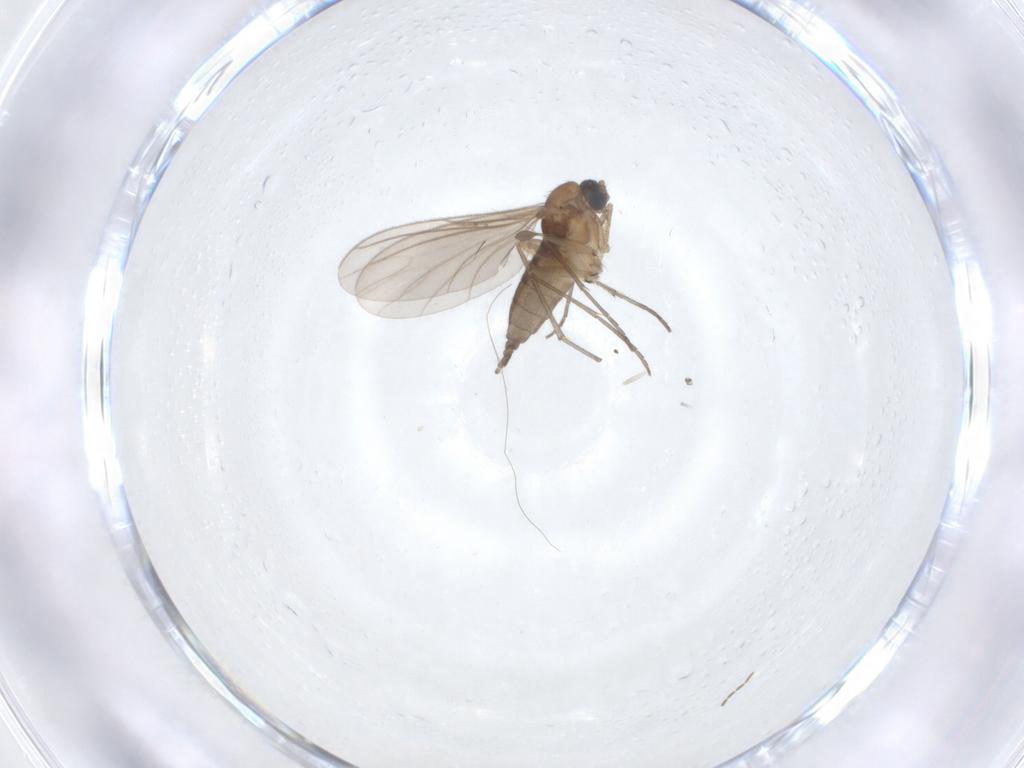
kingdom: Animalia
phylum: Arthropoda
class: Insecta
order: Diptera
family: Sciaridae
